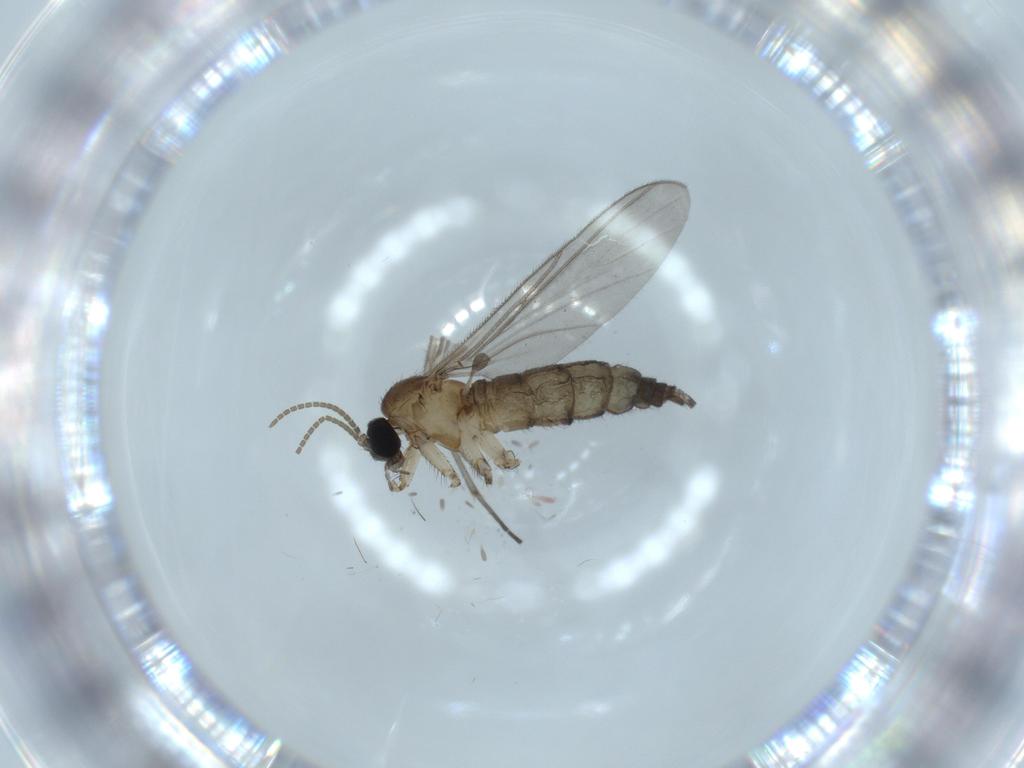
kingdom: Animalia
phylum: Arthropoda
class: Insecta
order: Diptera
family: Sciaridae
